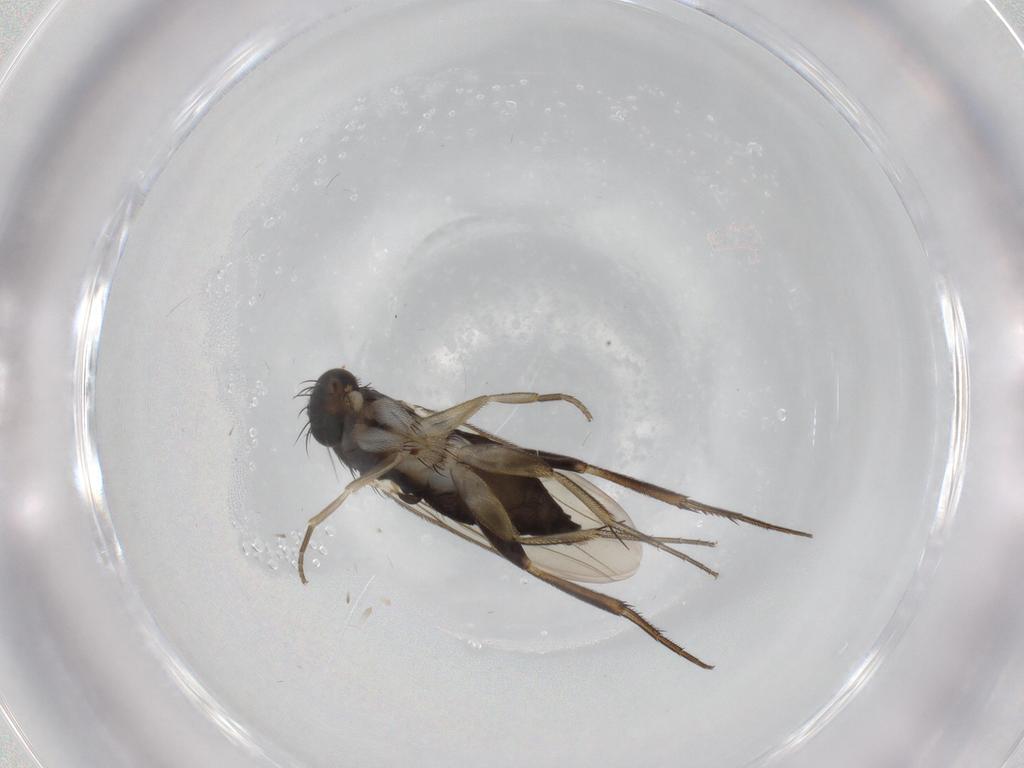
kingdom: Animalia
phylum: Arthropoda
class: Insecta
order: Diptera
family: Phoridae
